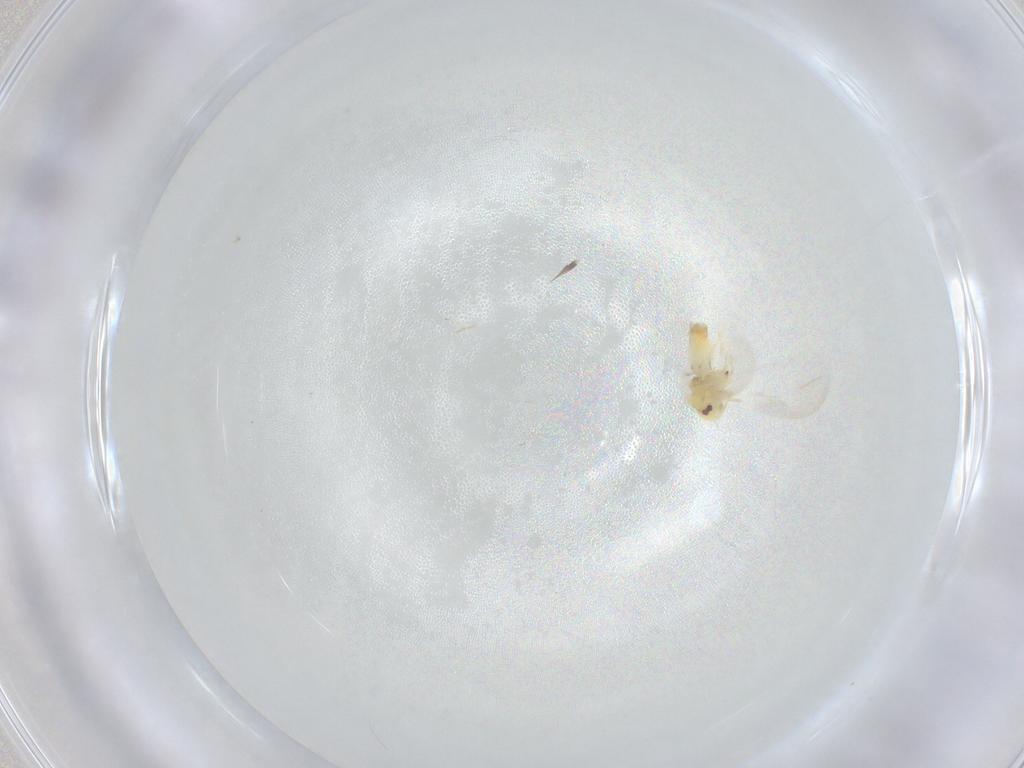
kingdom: Animalia
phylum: Arthropoda
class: Insecta
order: Hemiptera
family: Aleyrodidae
